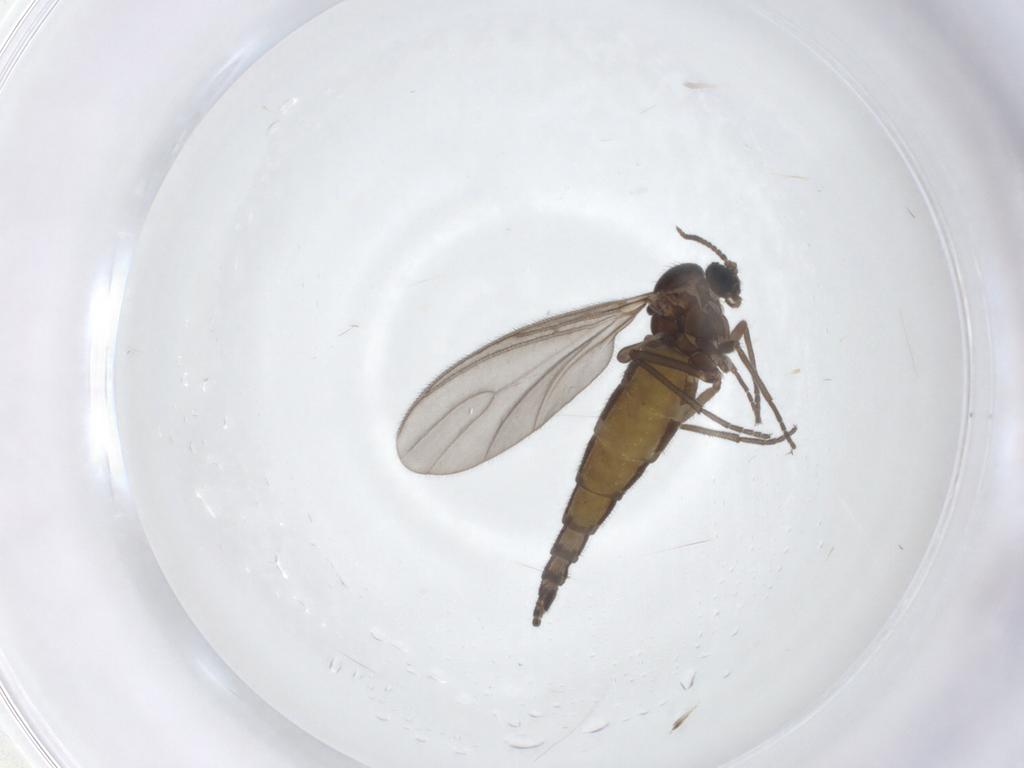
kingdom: Animalia
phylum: Arthropoda
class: Insecta
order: Diptera
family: Sciaridae
